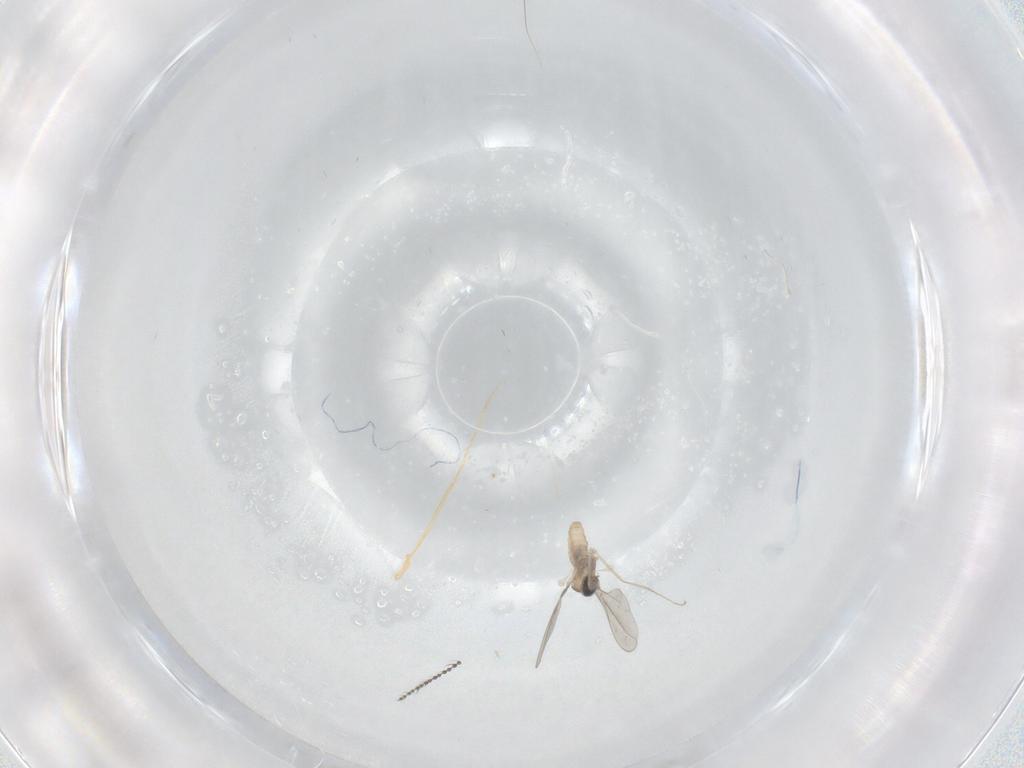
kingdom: Animalia
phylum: Arthropoda
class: Insecta
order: Diptera
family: Cecidomyiidae
